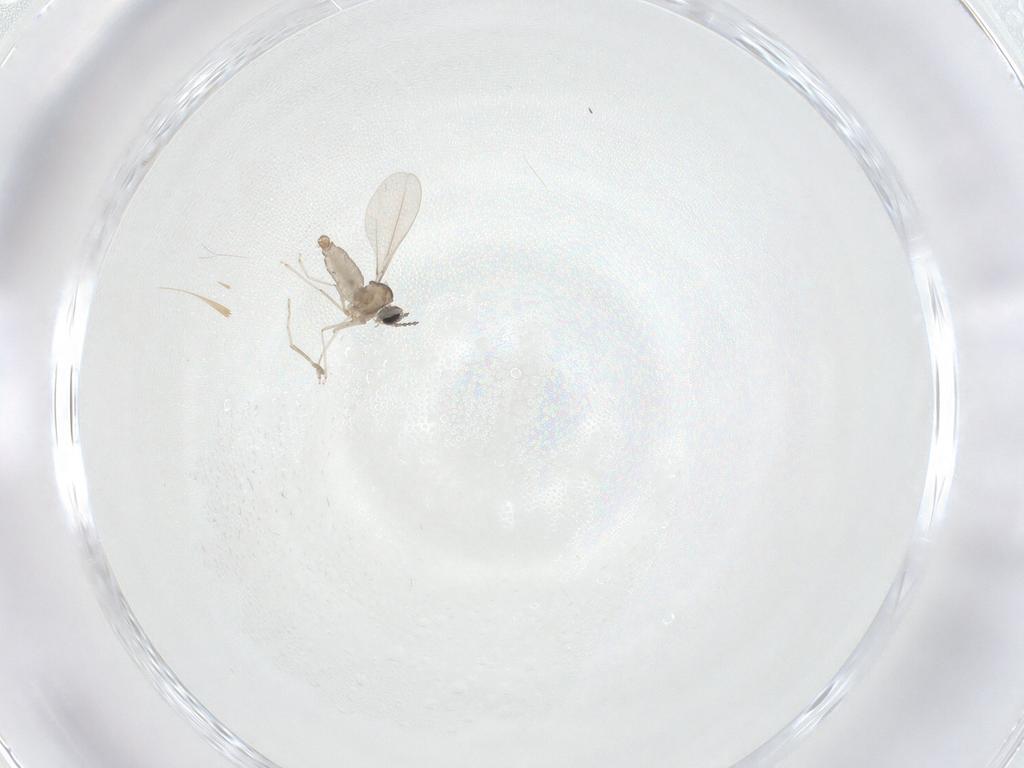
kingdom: Animalia
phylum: Arthropoda
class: Insecta
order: Diptera
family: Cecidomyiidae
